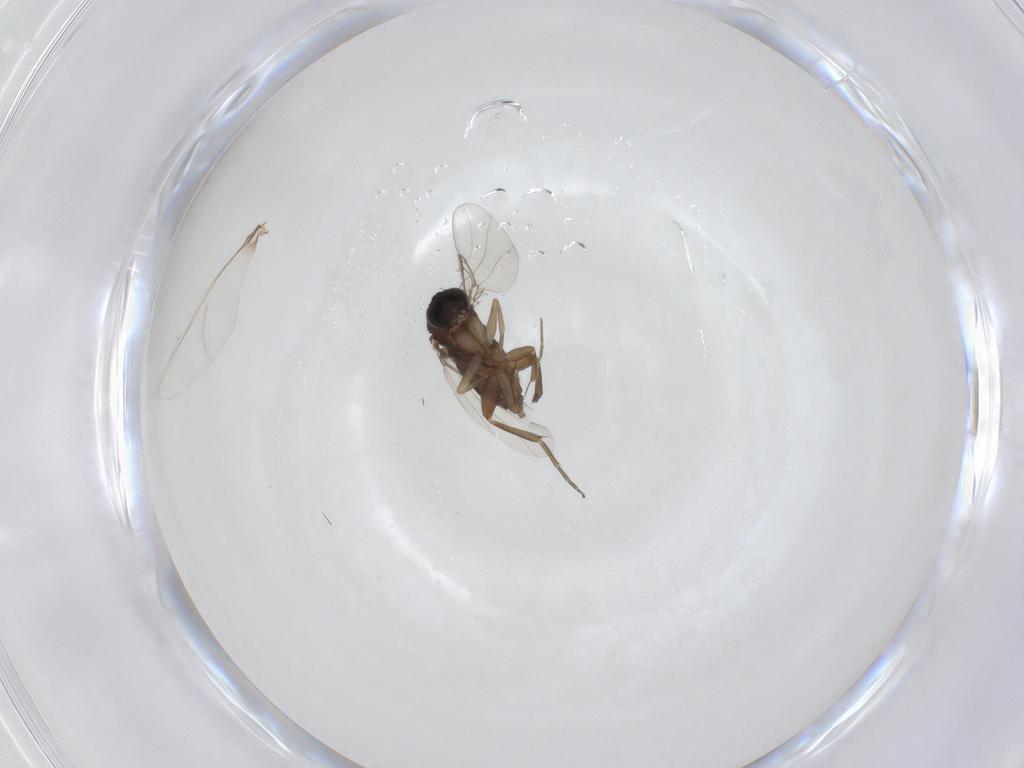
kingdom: Animalia
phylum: Arthropoda
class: Insecta
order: Diptera
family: Phoridae
